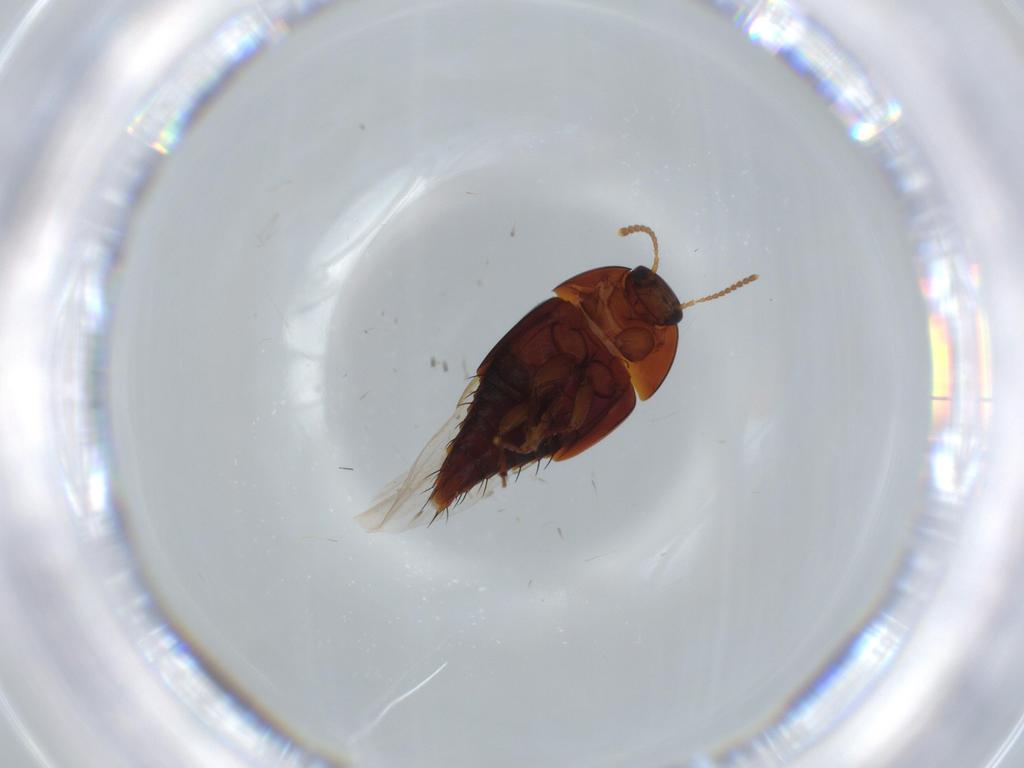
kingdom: Animalia
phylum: Arthropoda
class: Insecta
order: Coleoptera
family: Staphylinidae
